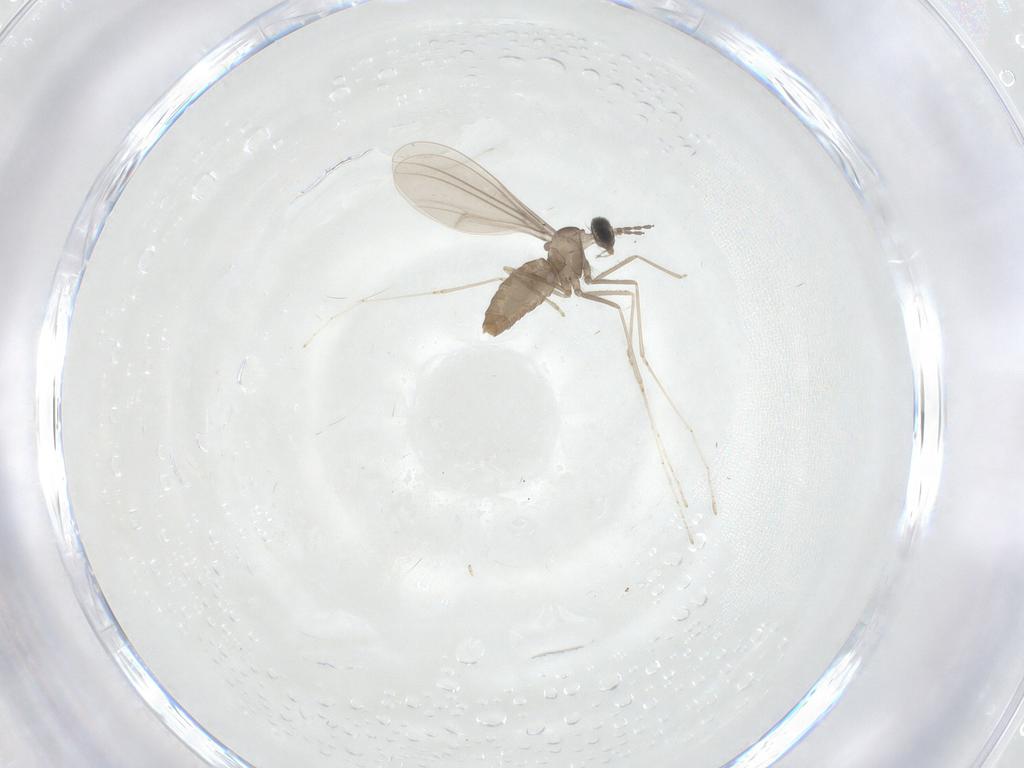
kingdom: Animalia
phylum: Arthropoda
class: Insecta
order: Diptera
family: Cecidomyiidae
